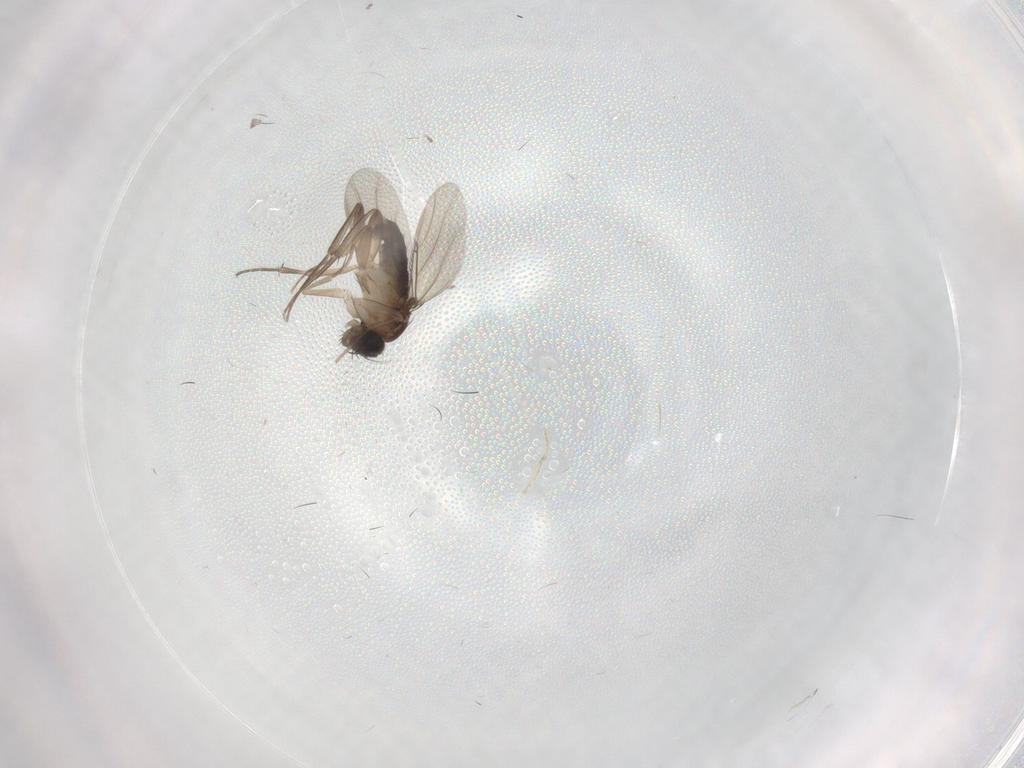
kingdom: Animalia
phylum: Arthropoda
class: Insecta
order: Diptera
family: Phoridae
